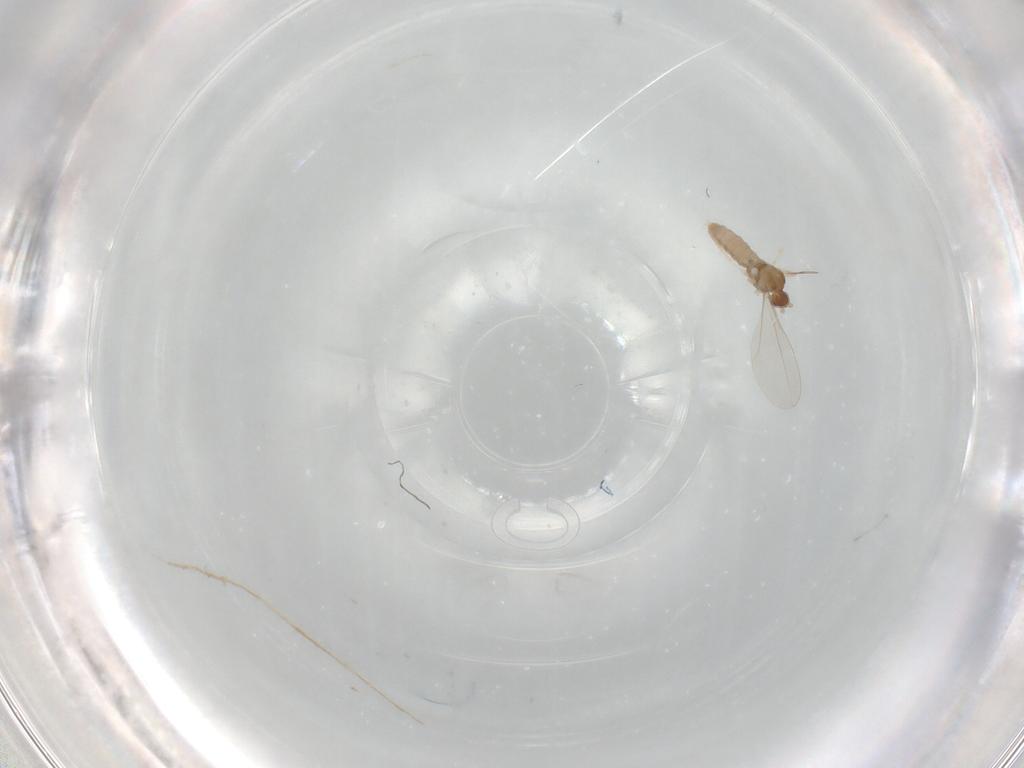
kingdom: Animalia
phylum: Arthropoda
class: Insecta
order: Diptera
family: Cecidomyiidae
